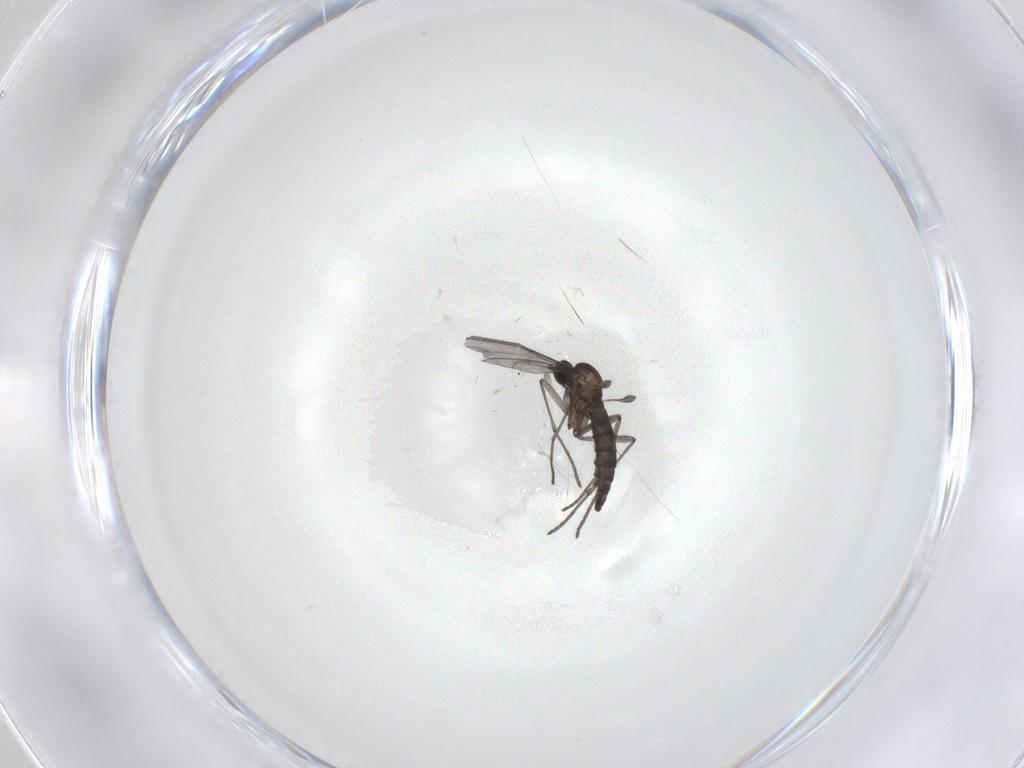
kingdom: Animalia
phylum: Arthropoda
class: Insecta
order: Diptera
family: Sciaridae
